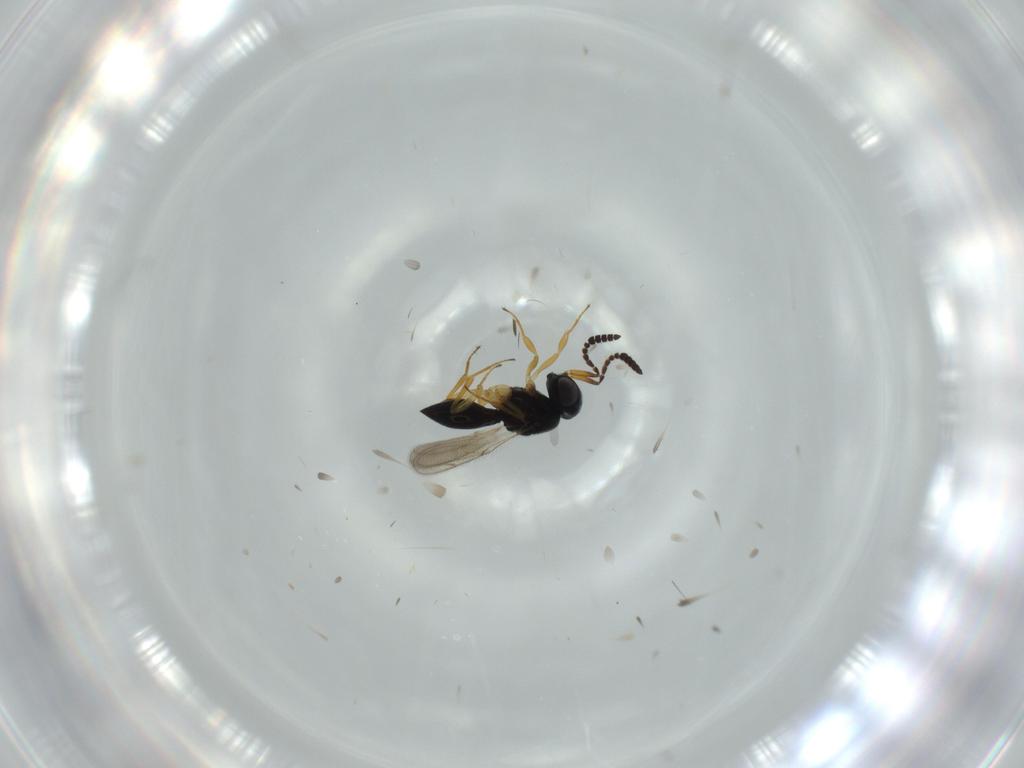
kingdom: Animalia
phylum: Arthropoda
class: Insecta
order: Hymenoptera
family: Scelionidae
